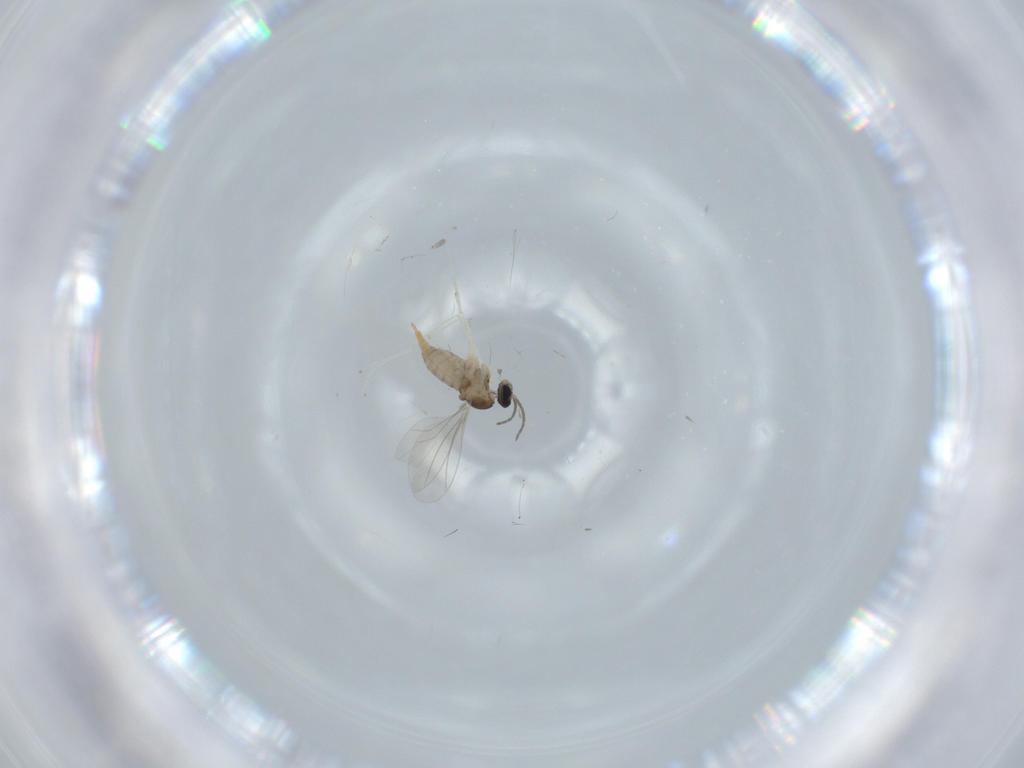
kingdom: Animalia
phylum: Arthropoda
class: Insecta
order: Diptera
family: Cecidomyiidae
